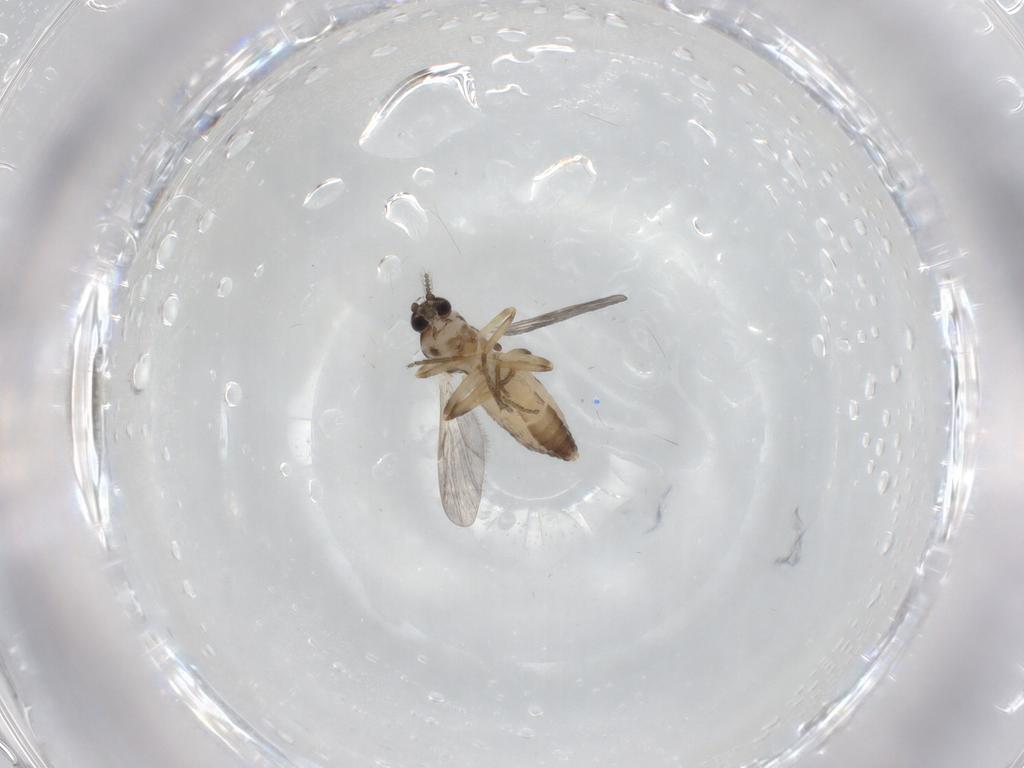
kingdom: Animalia
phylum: Arthropoda
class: Insecta
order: Diptera
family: Ceratopogonidae
